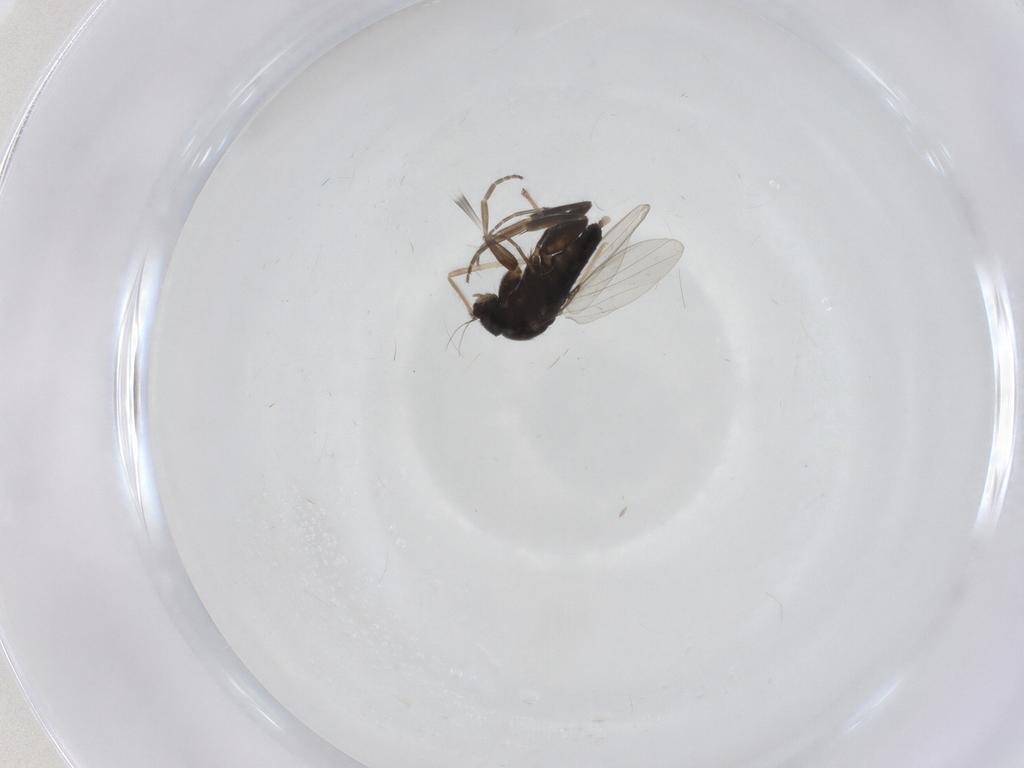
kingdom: Animalia
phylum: Arthropoda
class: Insecta
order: Diptera
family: Phoridae
